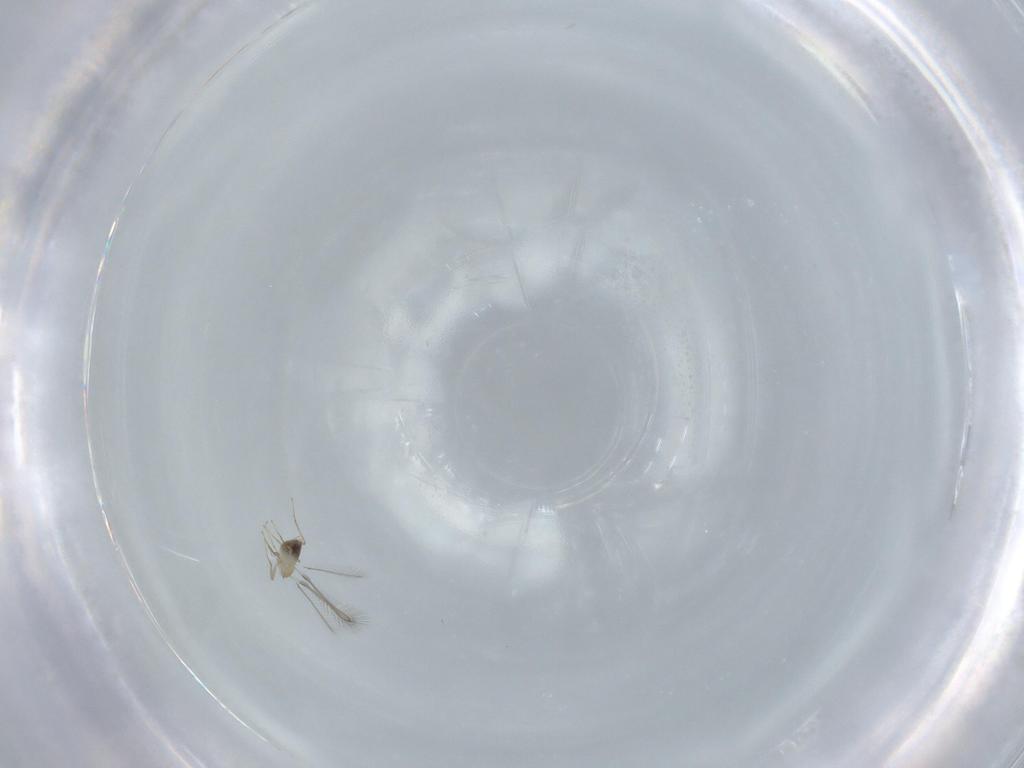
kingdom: Animalia
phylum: Arthropoda
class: Insecta
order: Hymenoptera
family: Mymaridae
